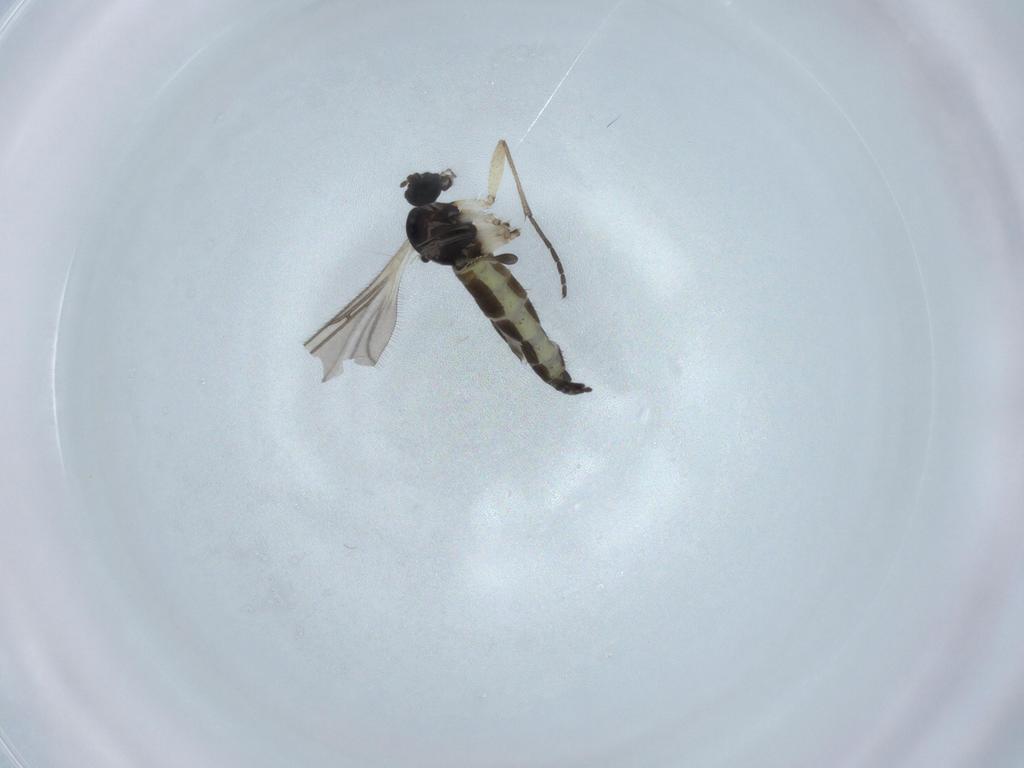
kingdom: Animalia
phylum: Arthropoda
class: Insecta
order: Diptera
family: Sciaridae
